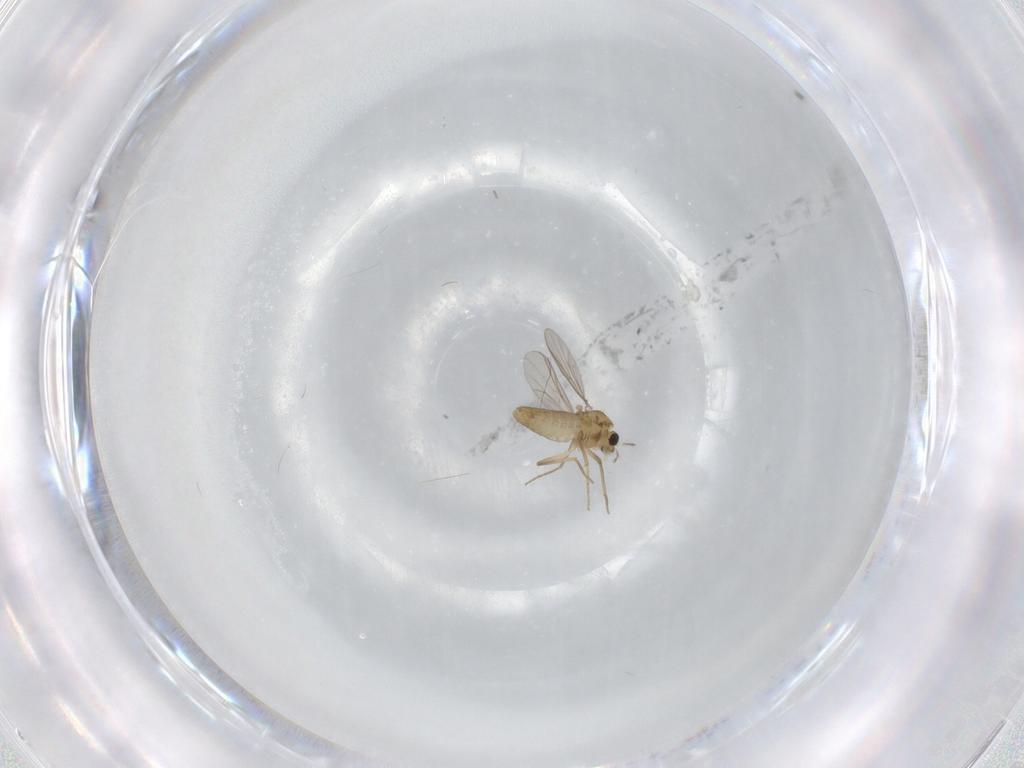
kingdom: Animalia
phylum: Arthropoda
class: Insecta
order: Diptera
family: Chironomidae
